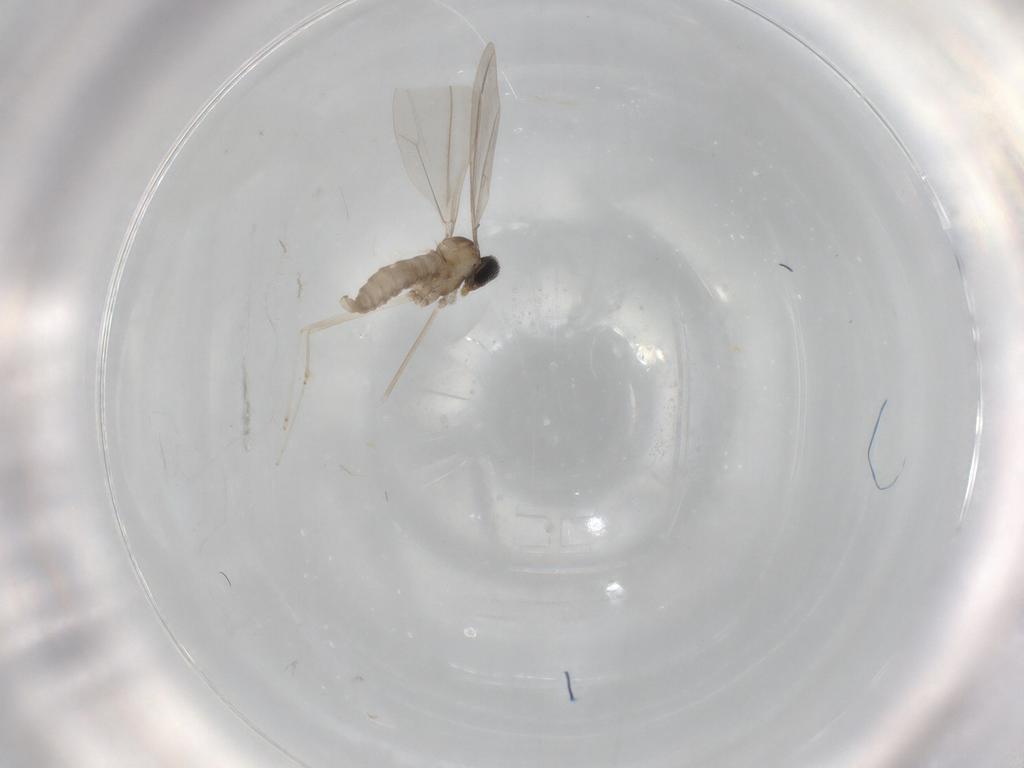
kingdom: Animalia
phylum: Arthropoda
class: Insecta
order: Diptera
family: Cecidomyiidae
